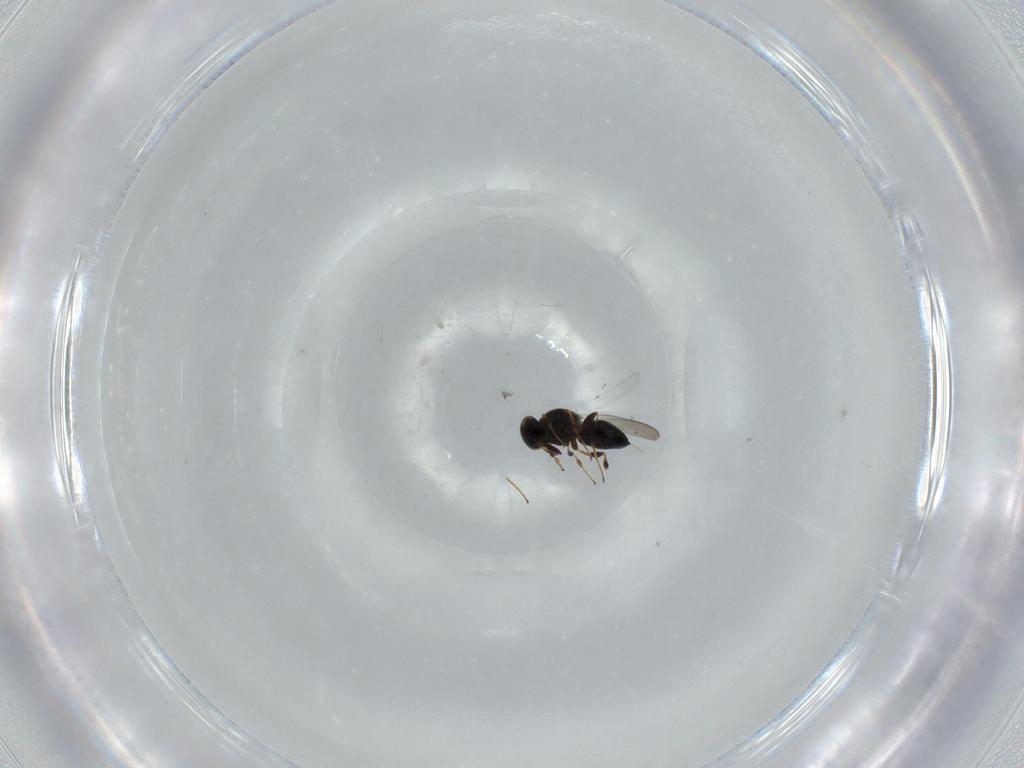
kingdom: Animalia
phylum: Arthropoda
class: Insecta
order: Hymenoptera
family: Platygastridae
